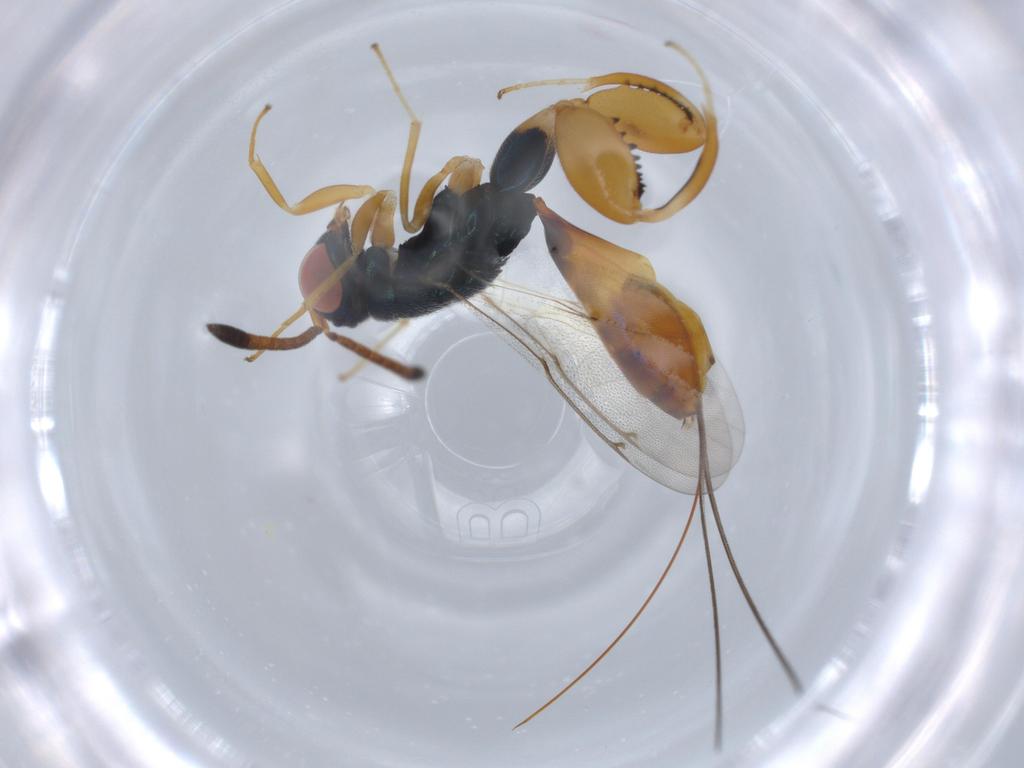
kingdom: Animalia
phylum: Arthropoda
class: Insecta
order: Hymenoptera
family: Torymidae
